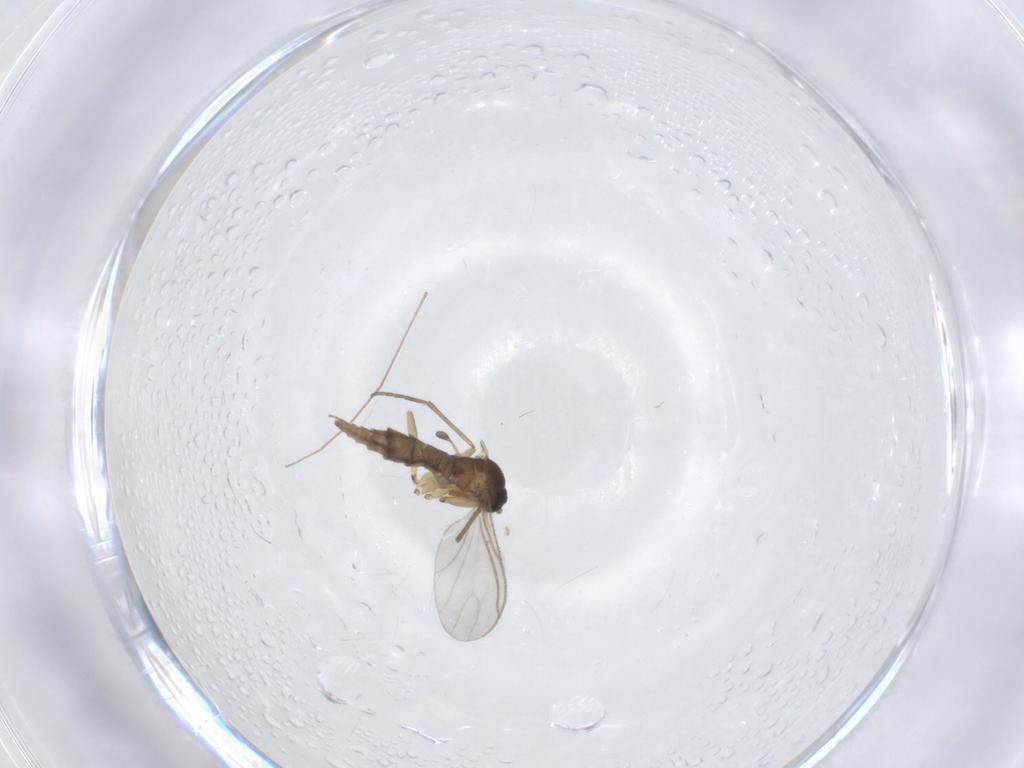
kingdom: Animalia
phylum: Arthropoda
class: Insecta
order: Diptera
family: Sciaridae
